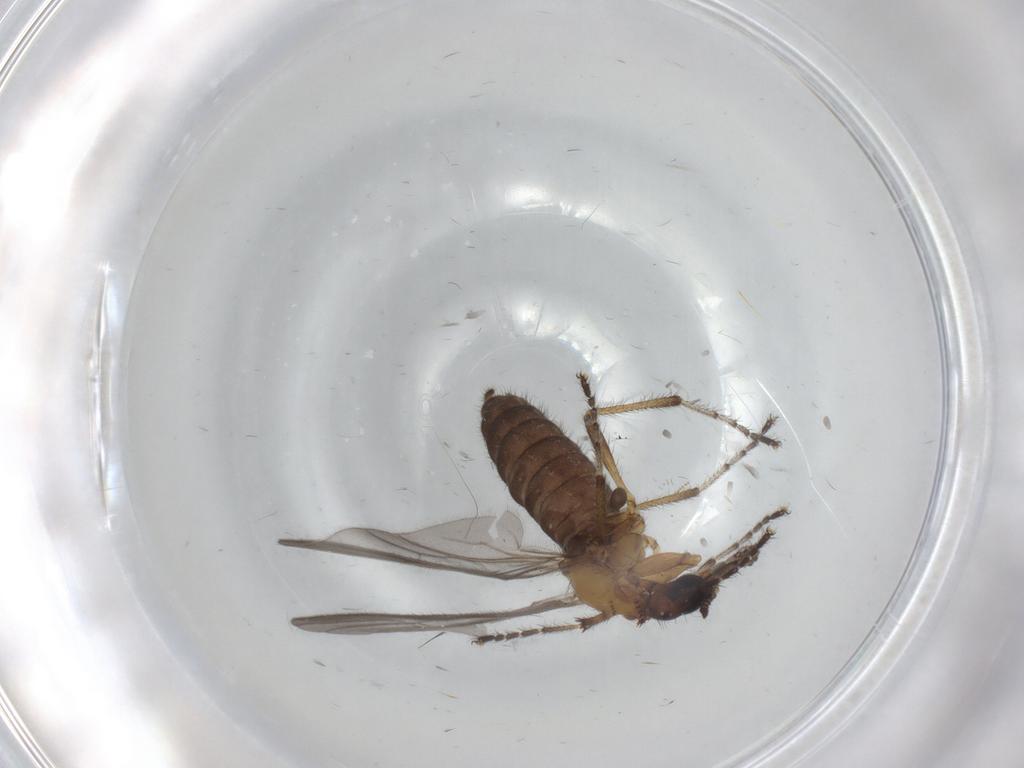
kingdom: Animalia
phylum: Arthropoda
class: Insecta
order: Diptera
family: Bibionidae
